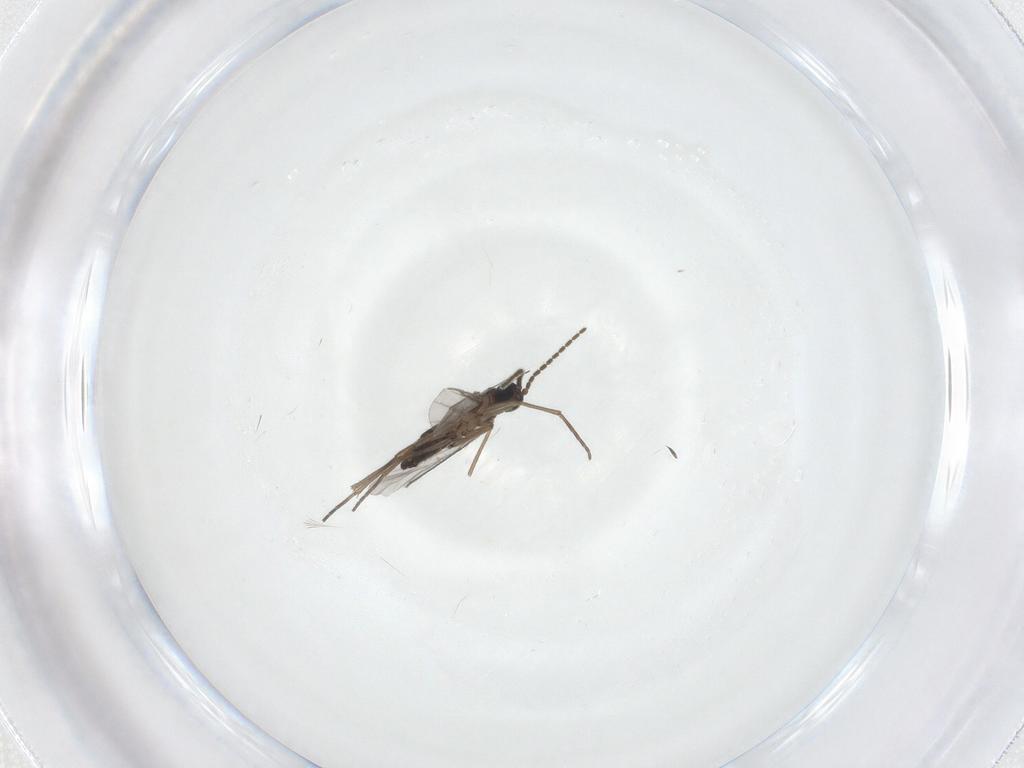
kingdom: Animalia
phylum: Arthropoda
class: Insecta
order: Diptera
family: Sciaridae
